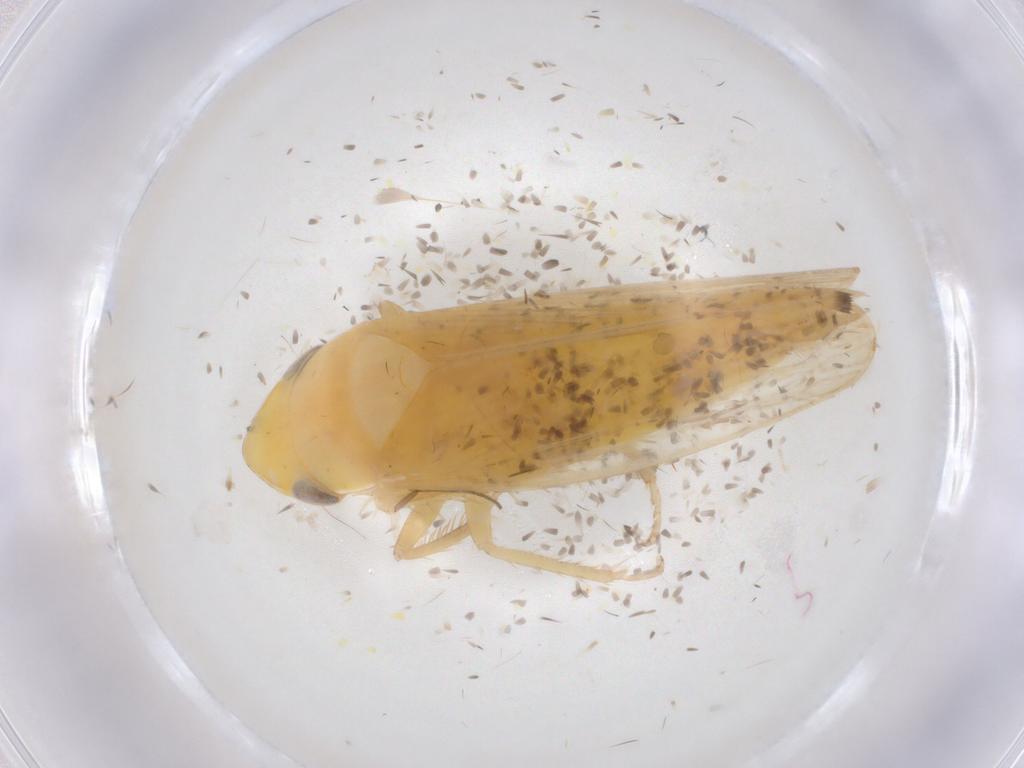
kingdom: Animalia
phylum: Arthropoda
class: Insecta
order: Hemiptera
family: Cicadellidae
